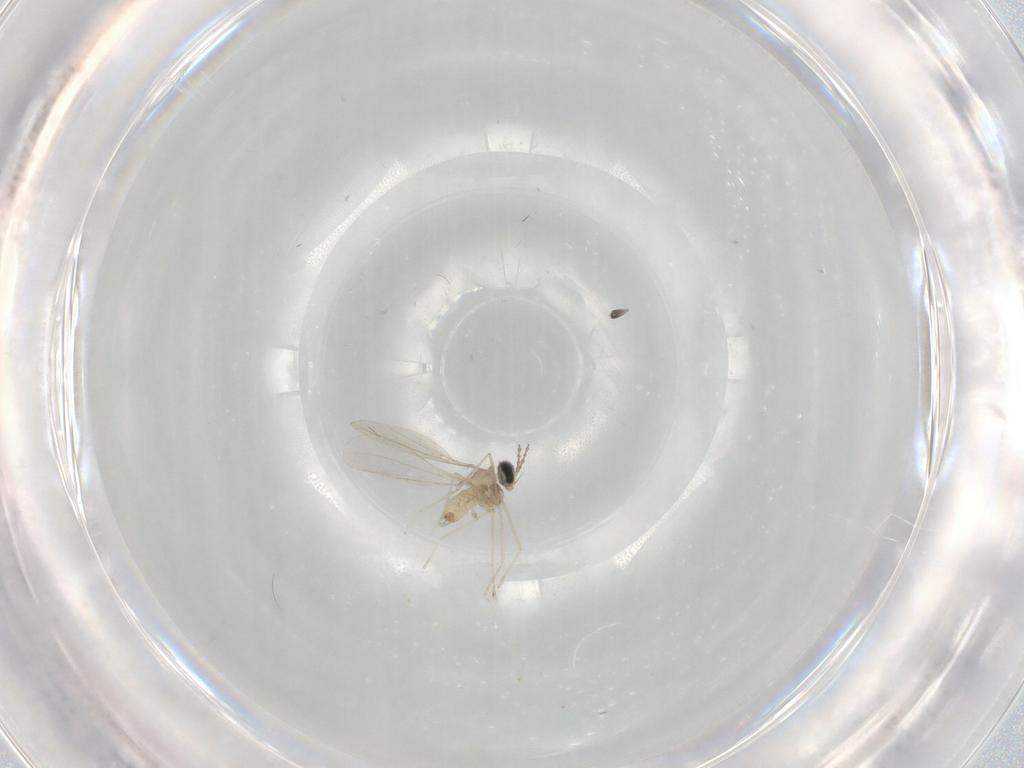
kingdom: Animalia
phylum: Arthropoda
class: Insecta
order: Diptera
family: Cecidomyiidae
